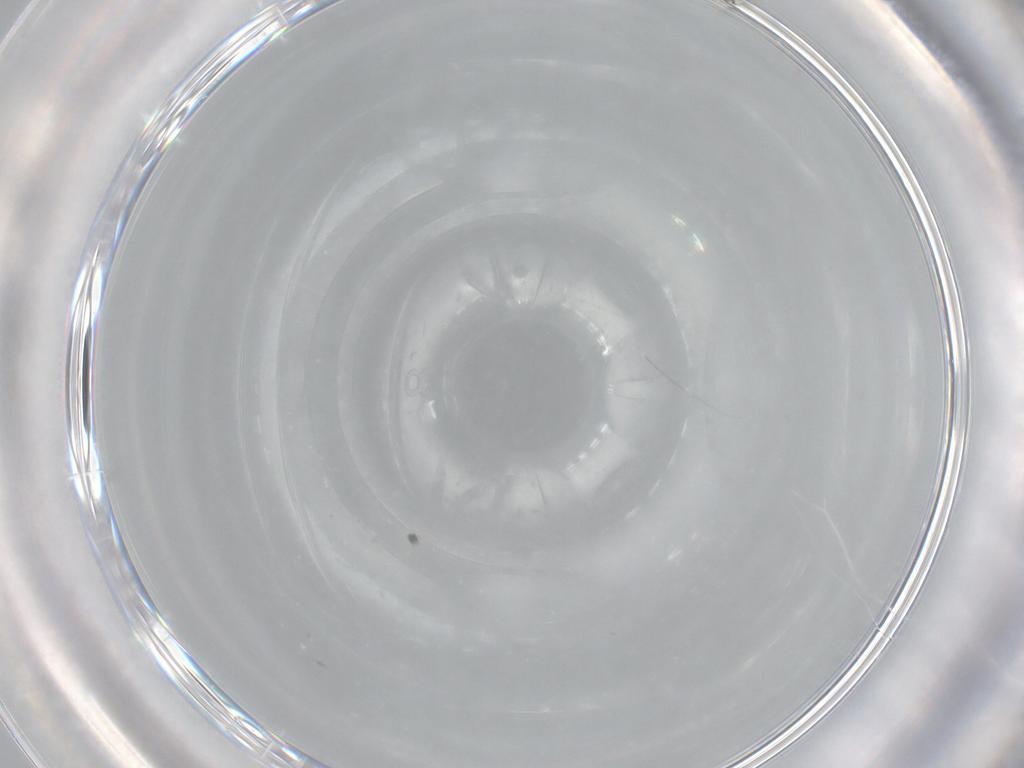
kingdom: Animalia
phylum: Arthropoda
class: Insecta
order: Hymenoptera
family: Mymaridae
